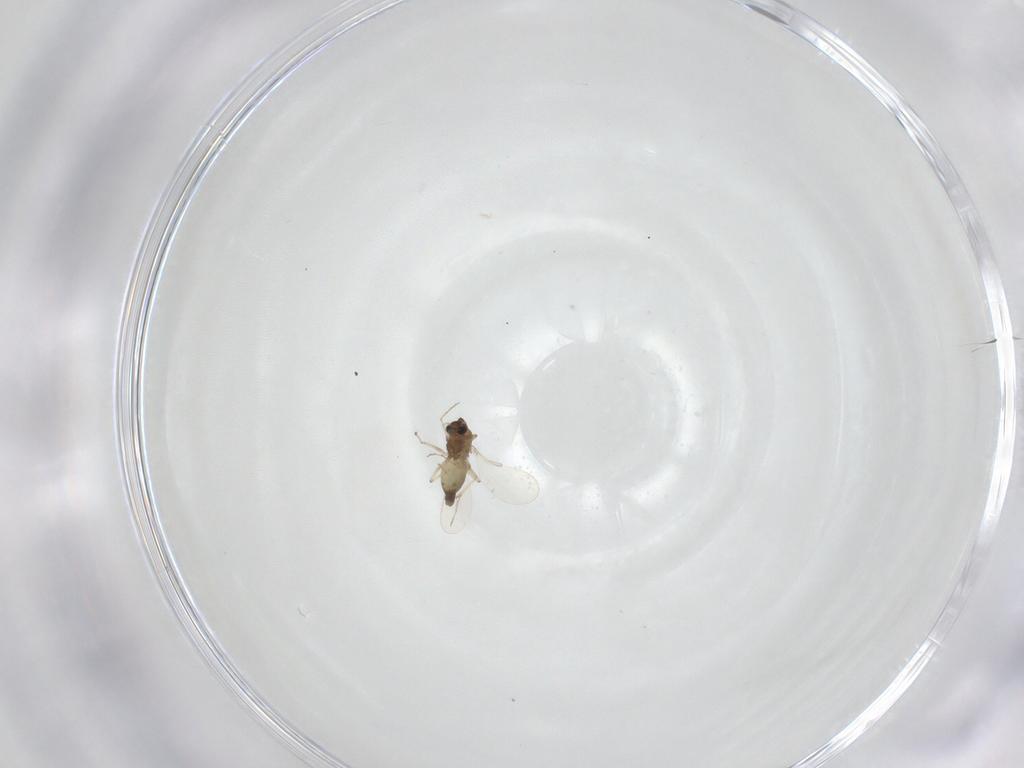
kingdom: Animalia
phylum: Arthropoda
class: Insecta
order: Diptera
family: Chironomidae
